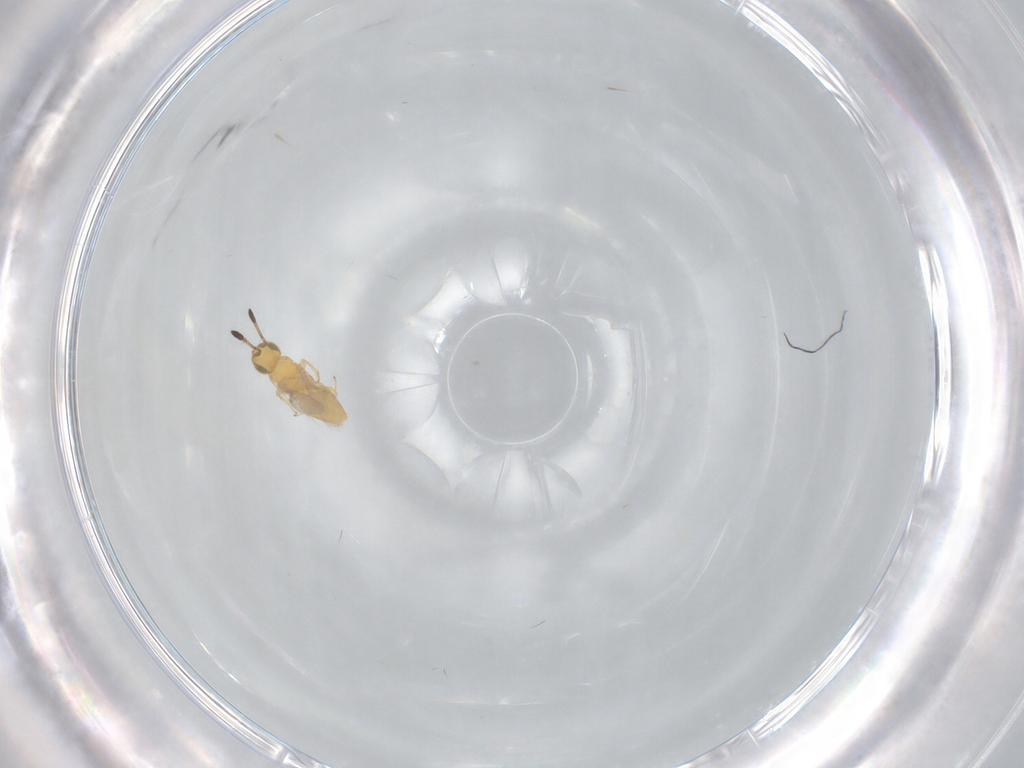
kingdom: Animalia
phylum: Arthropoda
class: Insecta
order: Hymenoptera
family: Encyrtidae
